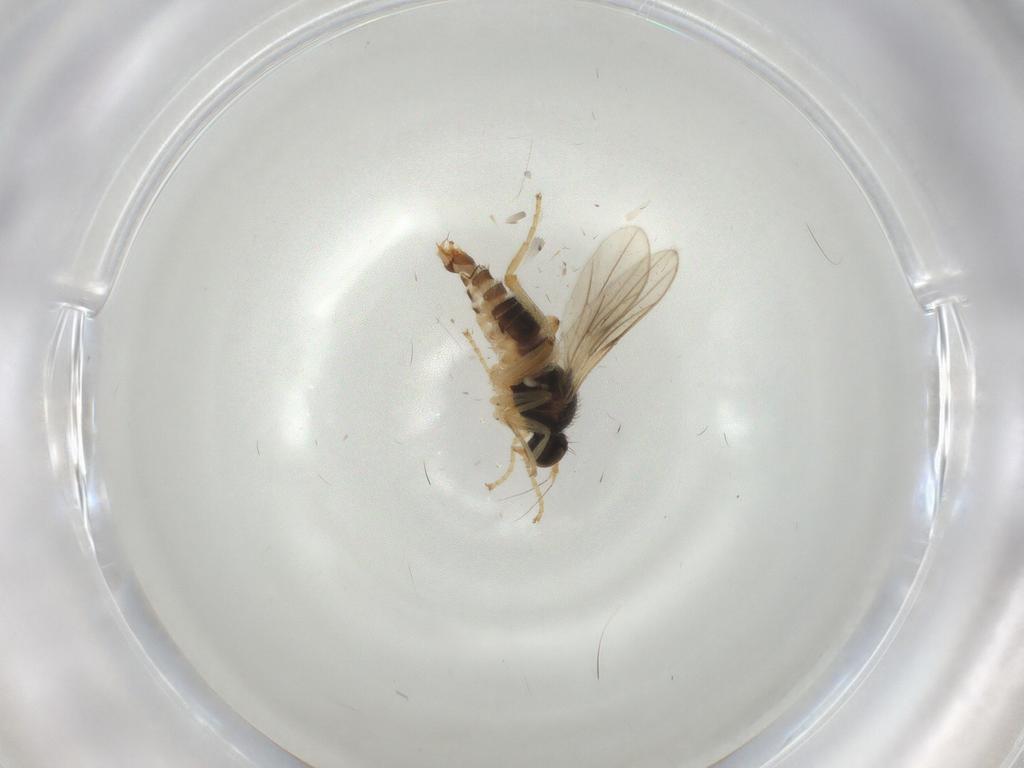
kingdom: Animalia
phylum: Arthropoda
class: Insecta
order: Diptera
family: Hybotidae
